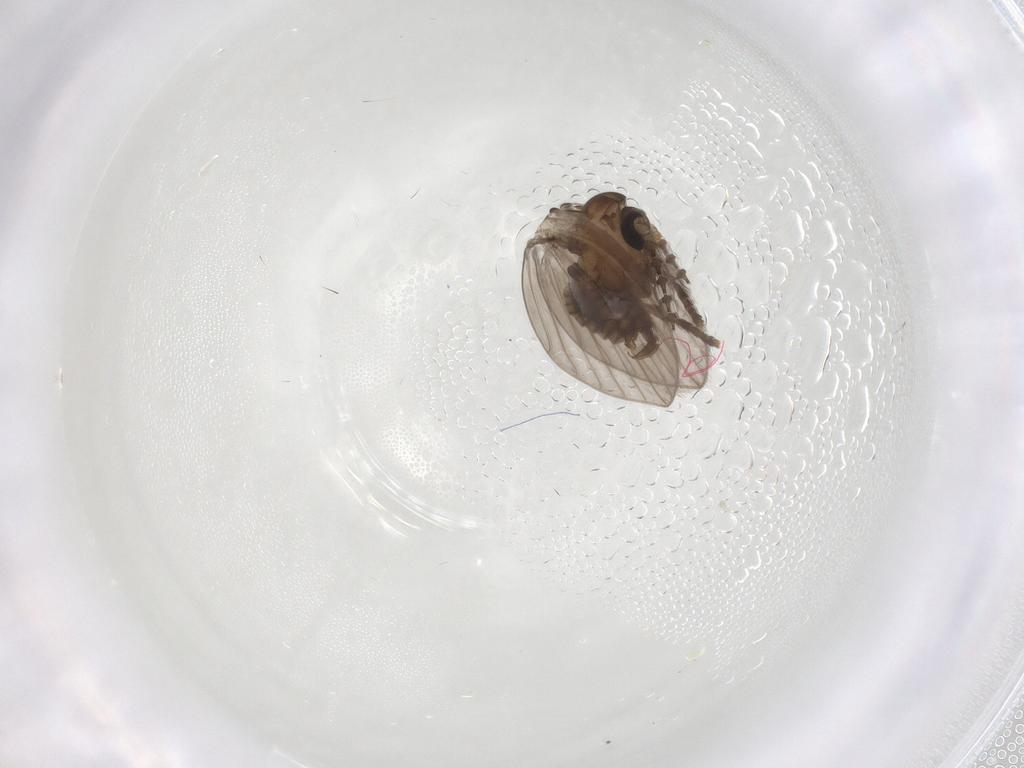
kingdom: Animalia
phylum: Arthropoda
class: Insecta
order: Diptera
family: Psychodidae
